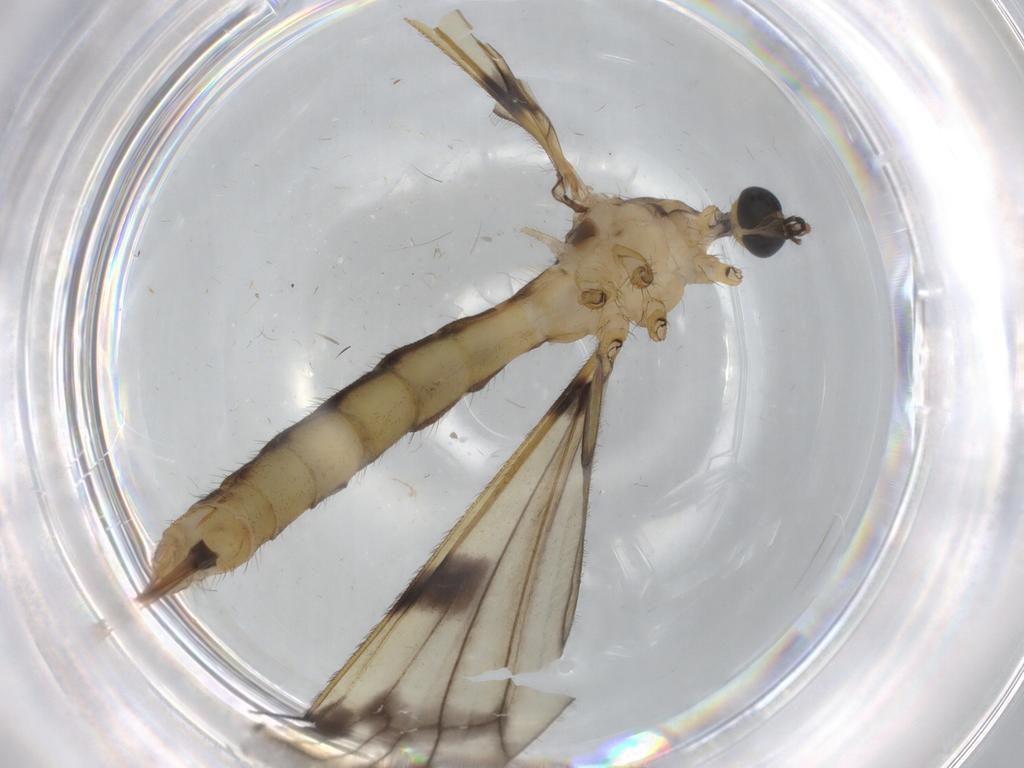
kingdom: Animalia
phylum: Arthropoda
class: Insecta
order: Diptera
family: Tipulidae
